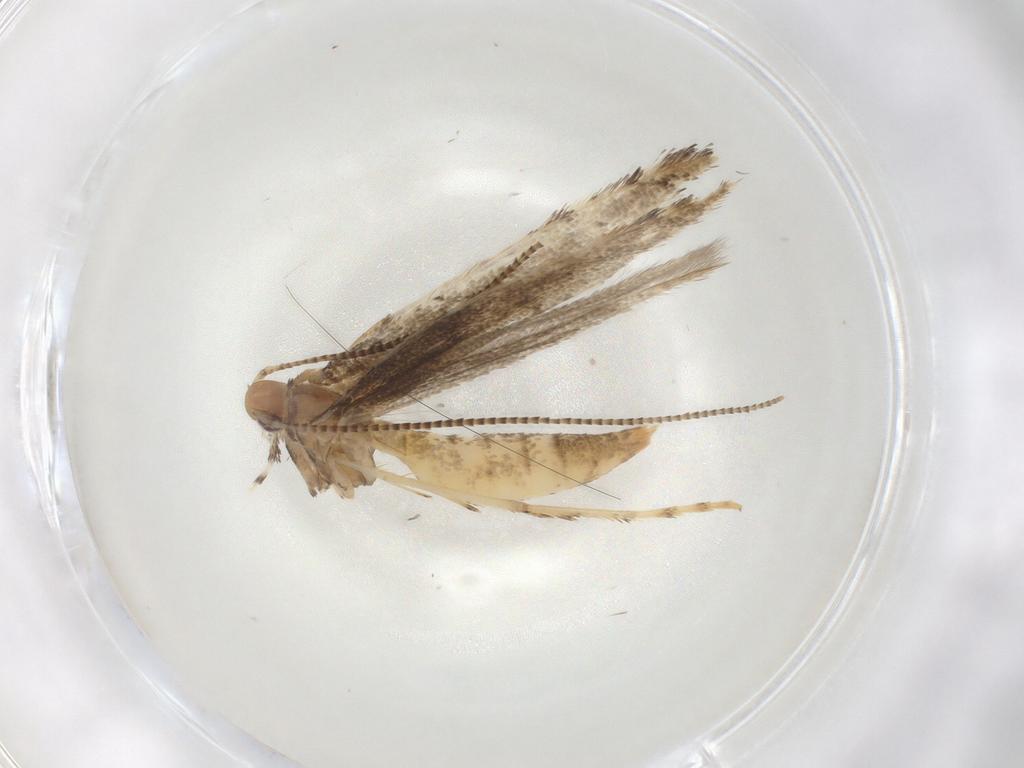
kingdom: Animalia
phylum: Arthropoda
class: Insecta
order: Lepidoptera
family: Gracillariidae
